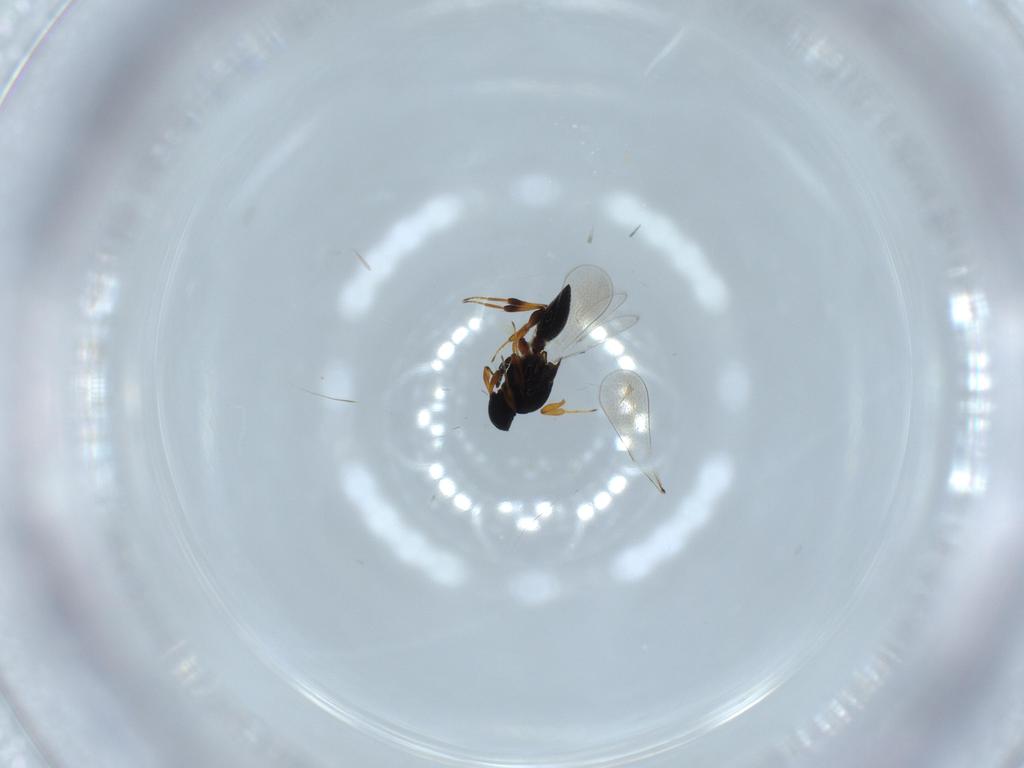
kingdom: Animalia
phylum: Arthropoda
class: Insecta
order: Hymenoptera
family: Platygastridae
